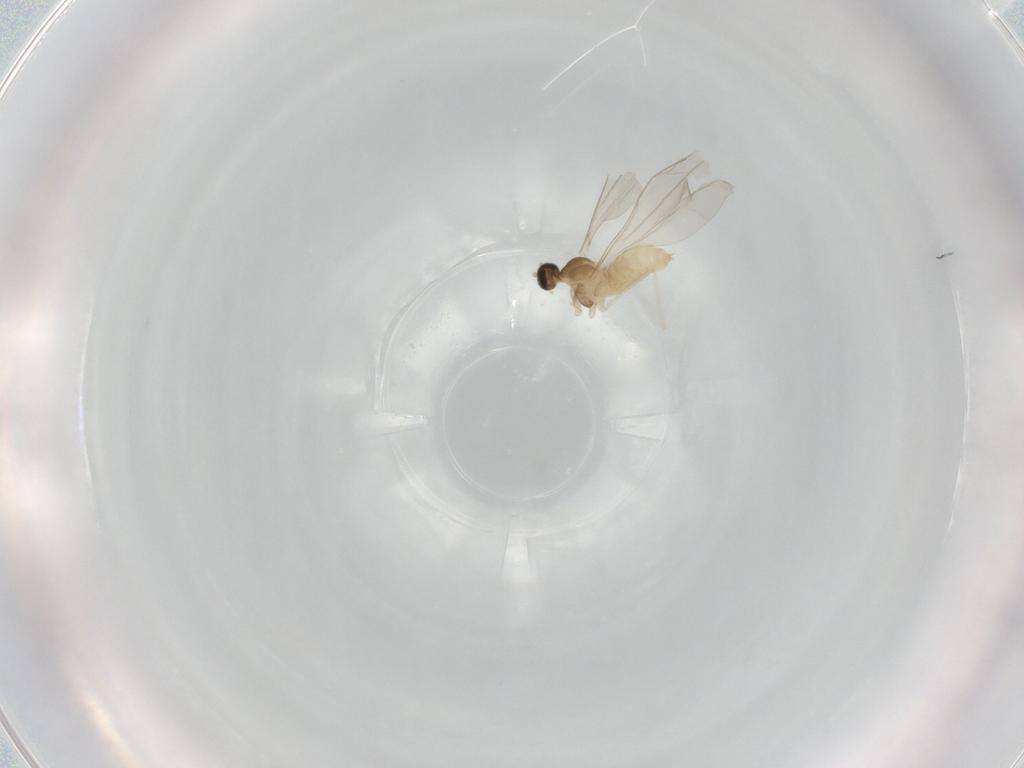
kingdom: Animalia
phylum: Arthropoda
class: Insecta
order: Diptera
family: Cecidomyiidae
